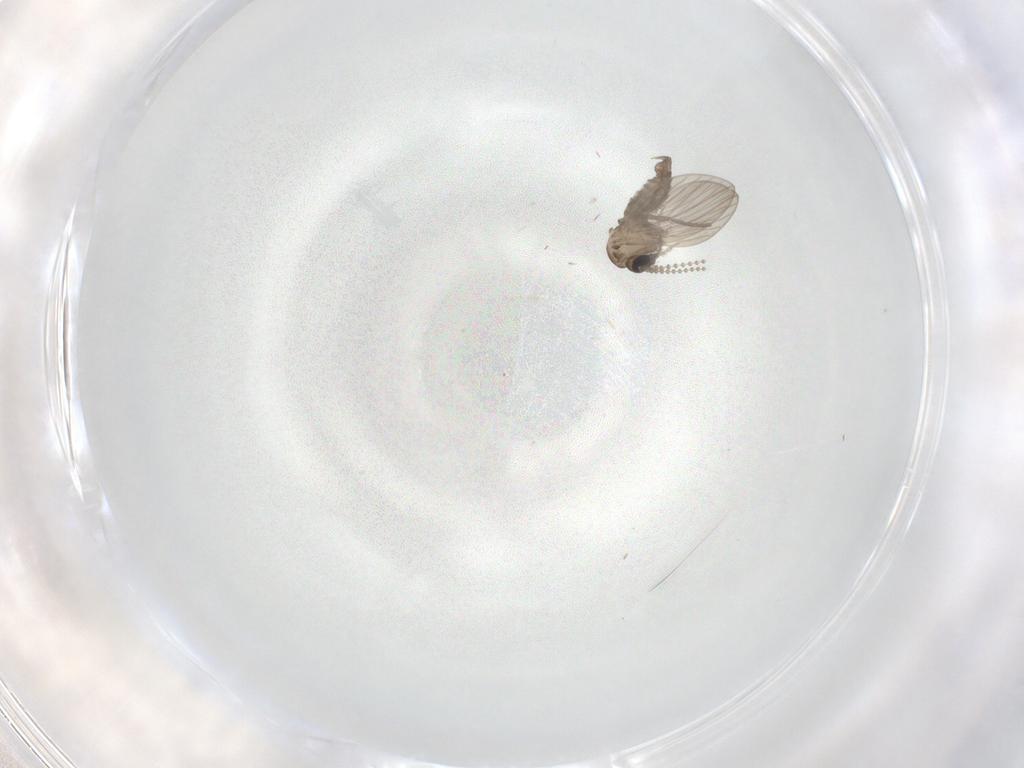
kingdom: Animalia
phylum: Arthropoda
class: Insecta
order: Diptera
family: Psychodidae
